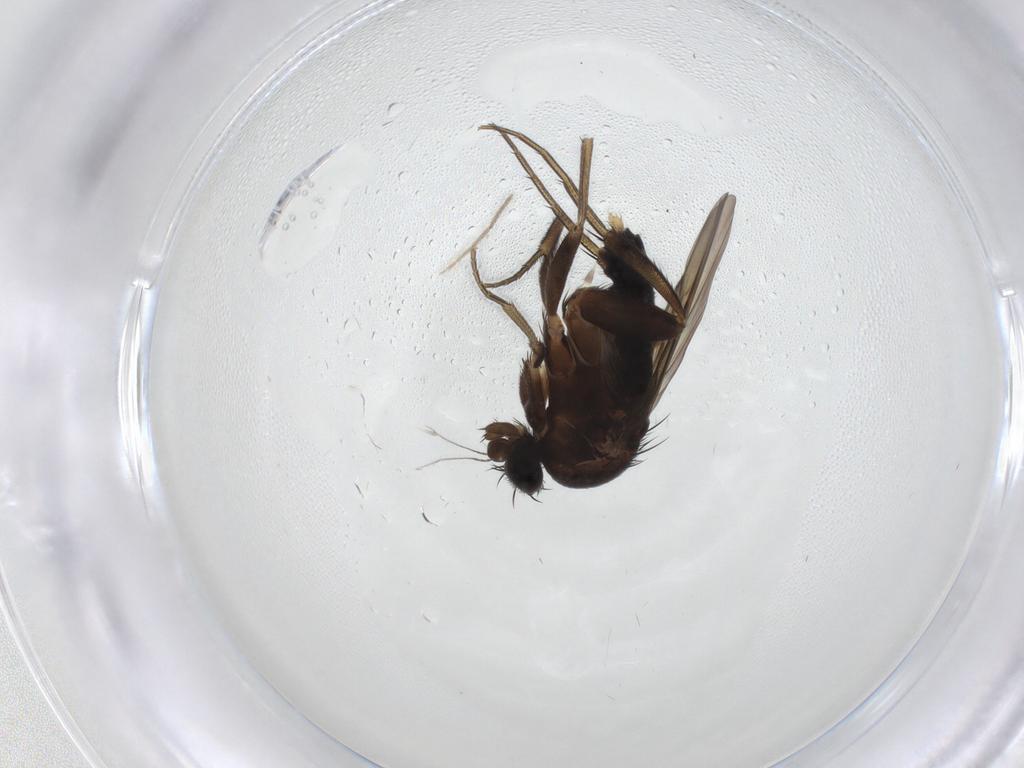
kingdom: Animalia
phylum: Arthropoda
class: Insecta
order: Diptera
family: Phoridae
